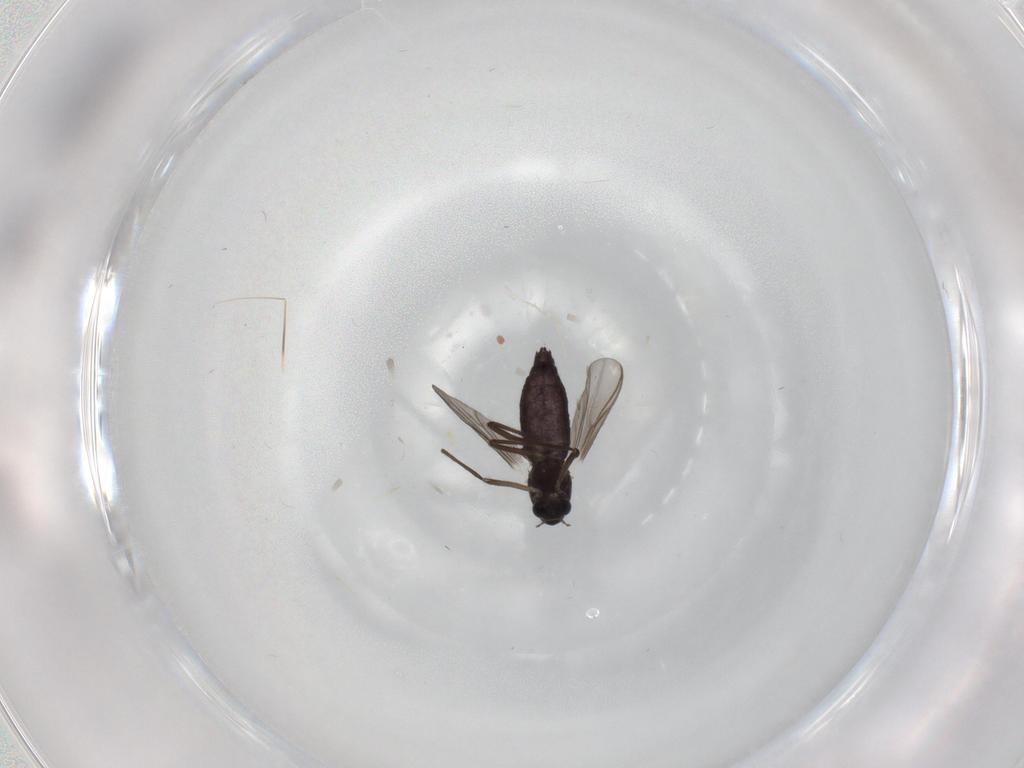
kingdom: Animalia
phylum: Arthropoda
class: Insecta
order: Diptera
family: Chironomidae
